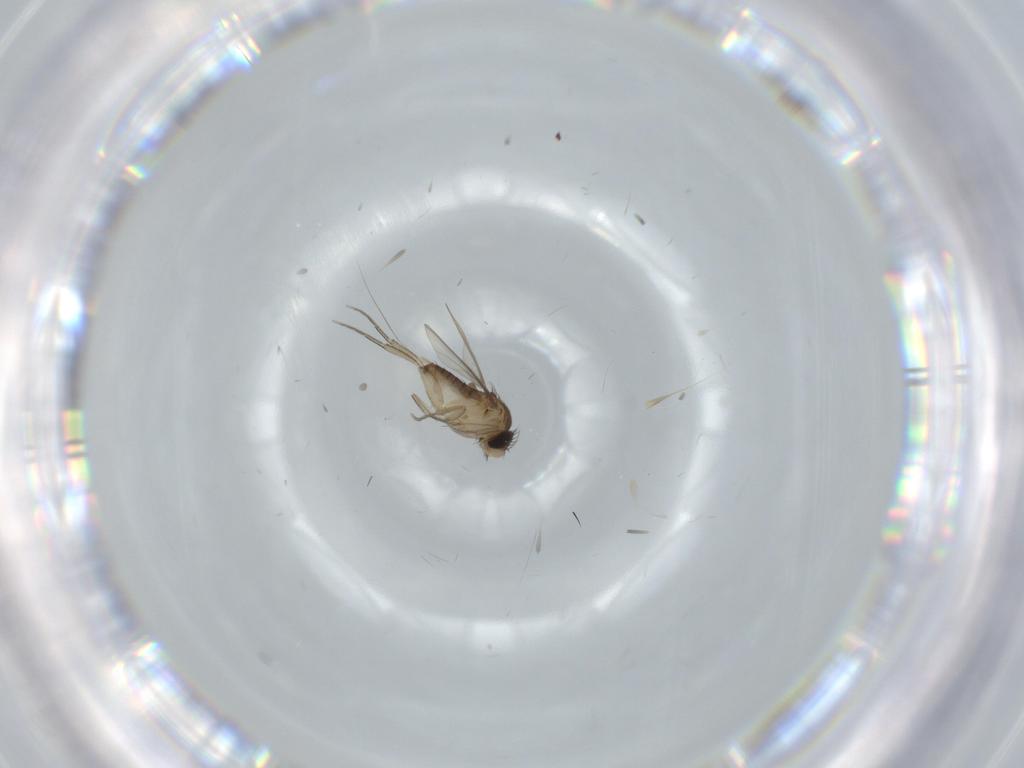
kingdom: Animalia
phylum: Arthropoda
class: Insecta
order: Diptera
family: Phoridae
